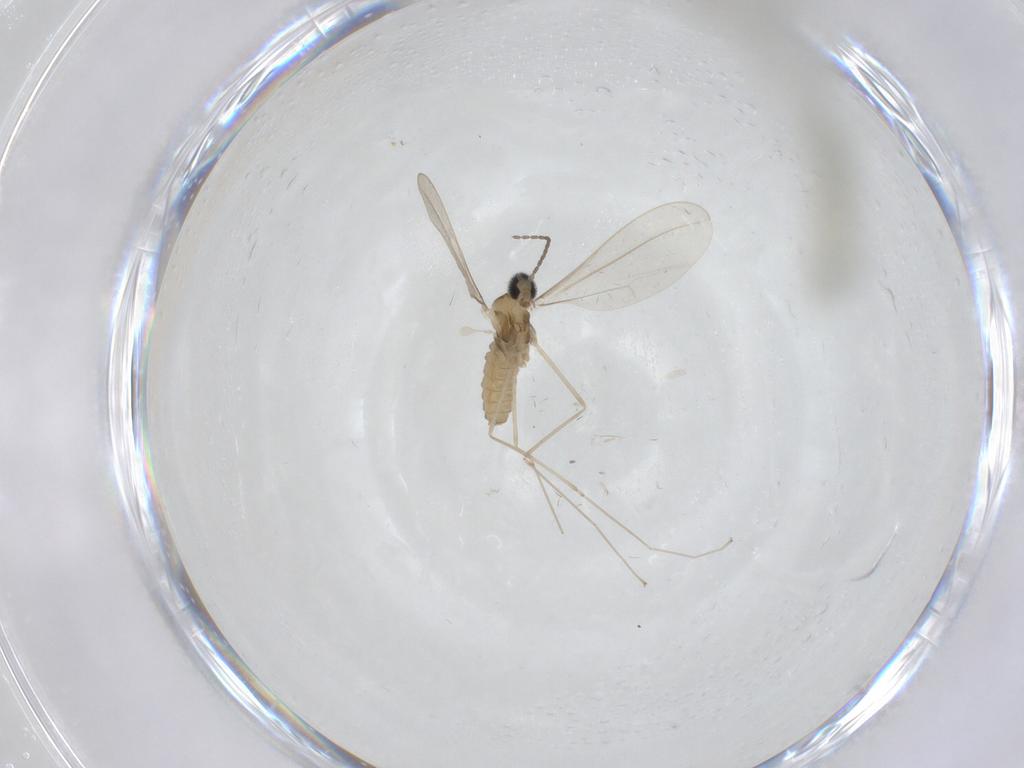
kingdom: Animalia
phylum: Arthropoda
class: Insecta
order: Diptera
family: Cecidomyiidae
